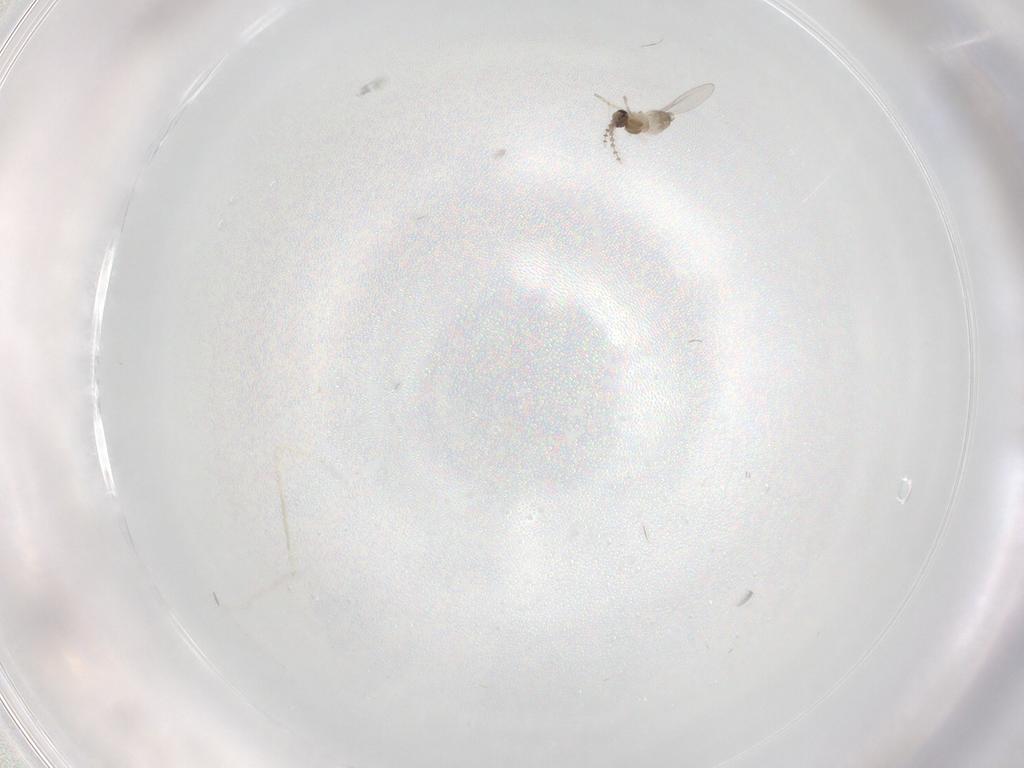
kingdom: Animalia
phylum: Arthropoda
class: Insecta
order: Diptera
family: Cecidomyiidae
